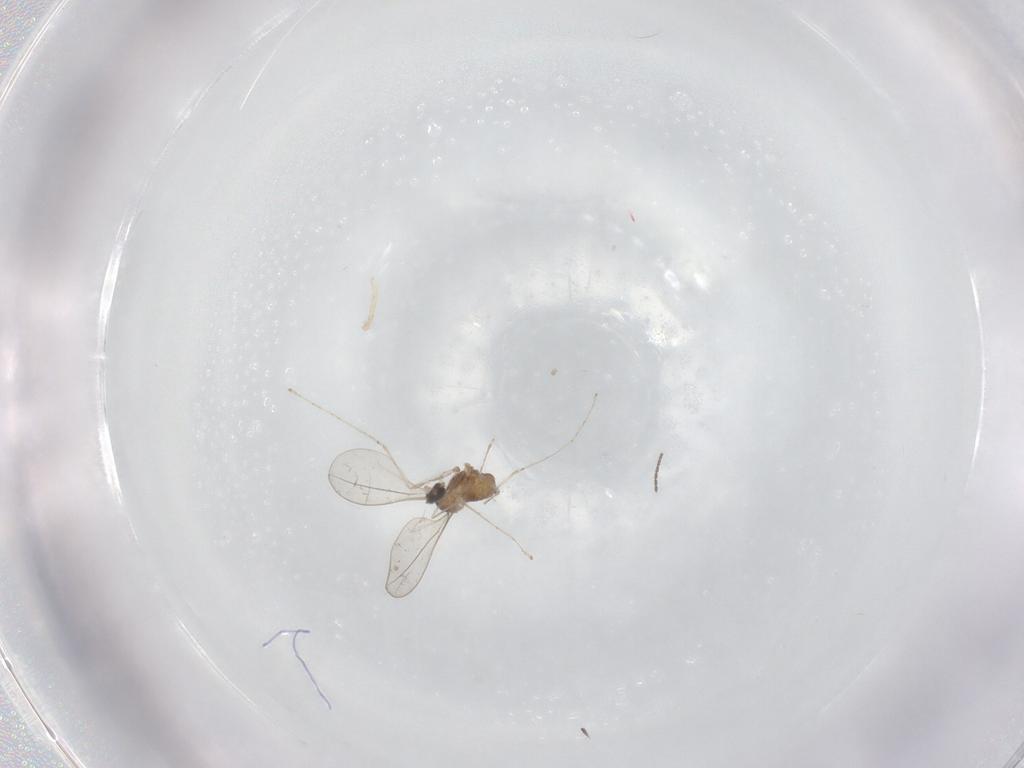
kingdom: Animalia
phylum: Arthropoda
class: Insecta
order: Diptera
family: Cecidomyiidae
